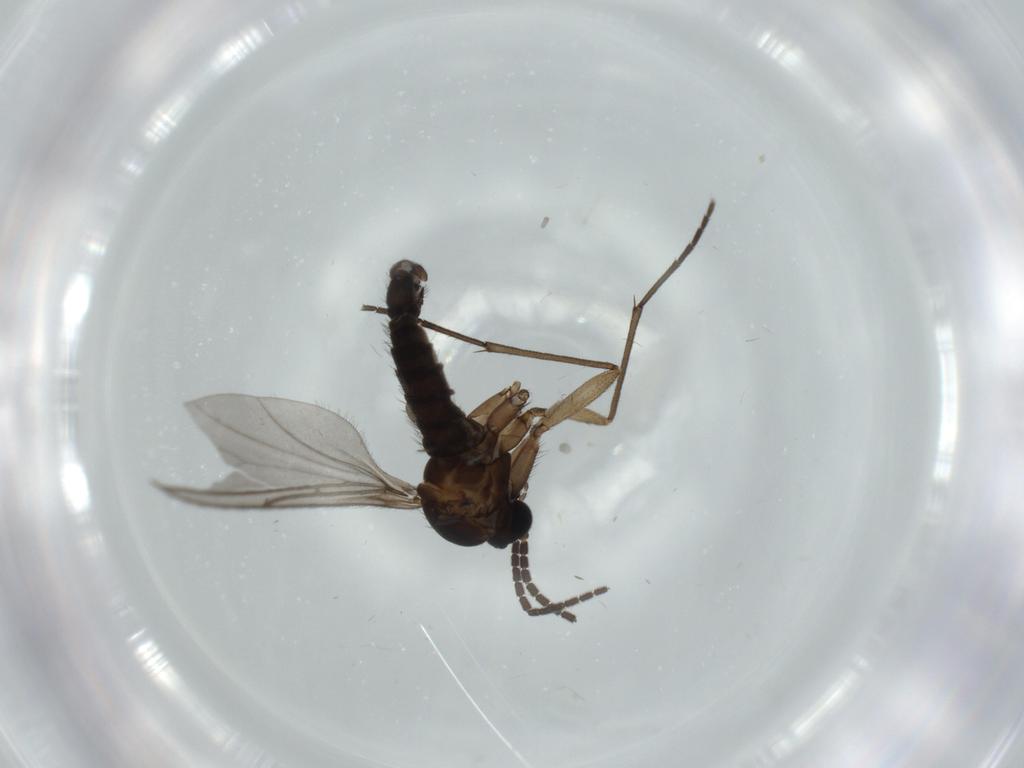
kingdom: Animalia
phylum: Arthropoda
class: Insecta
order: Diptera
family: Sciaridae
